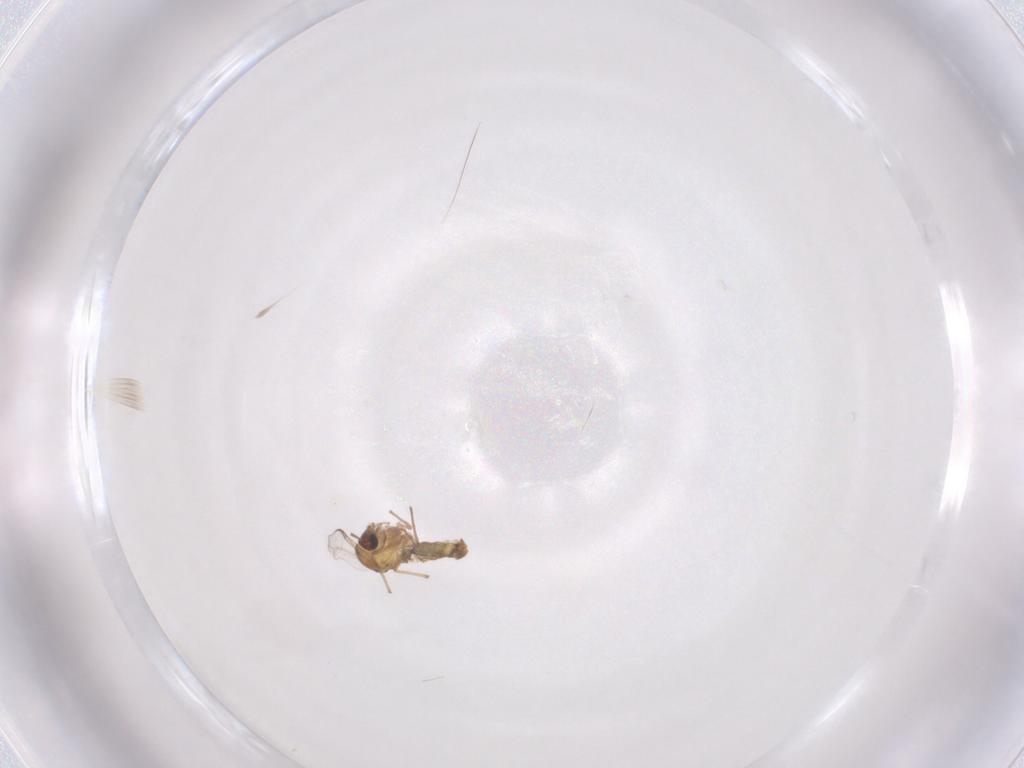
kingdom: Animalia
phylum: Arthropoda
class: Insecta
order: Diptera
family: Chironomidae
